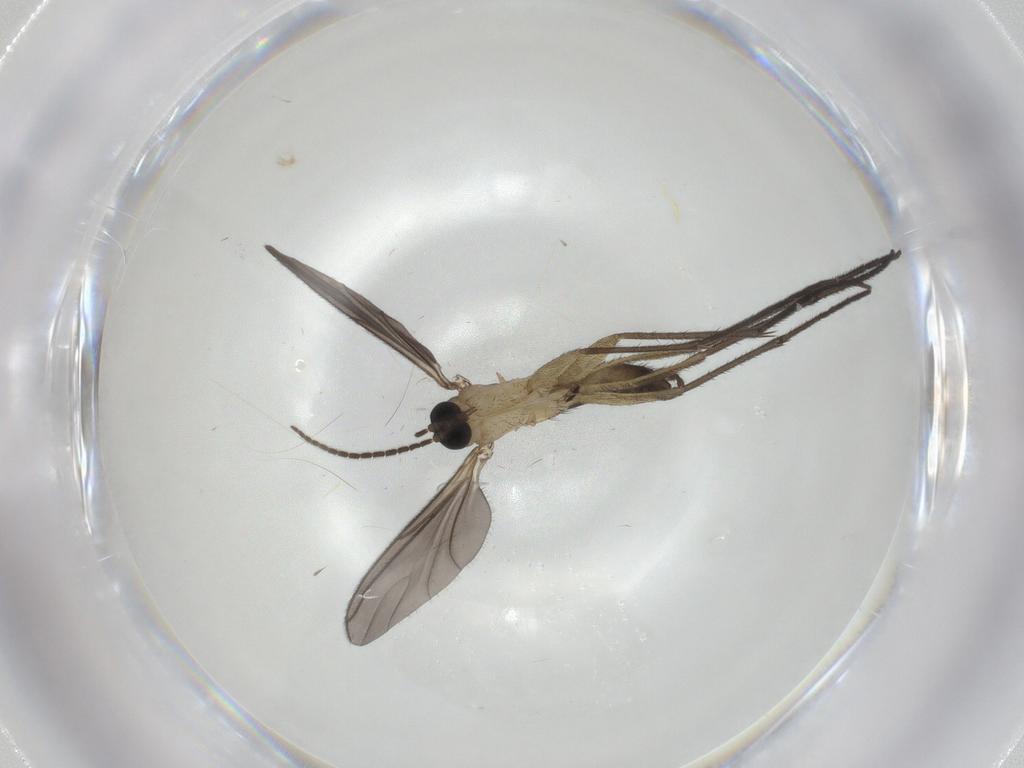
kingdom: Animalia
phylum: Arthropoda
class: Insecta
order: Diptera
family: Sciaridae
